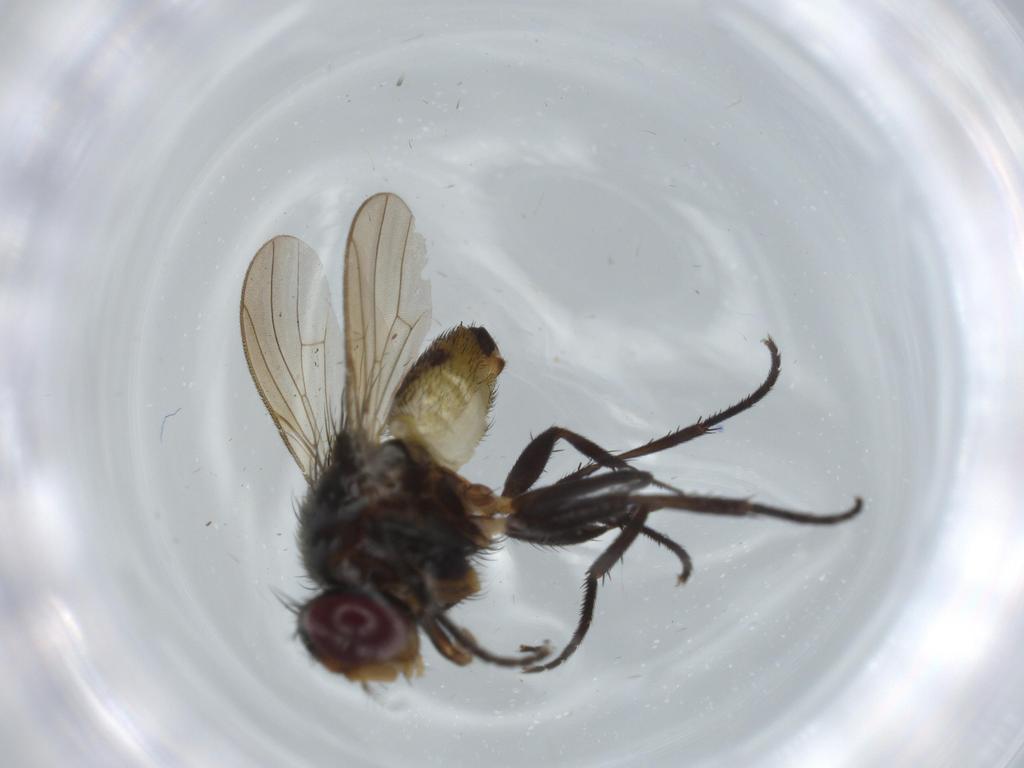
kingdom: Animalia
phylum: Arthropoda
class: Insecta
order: Diptera
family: Anthomyiidae
